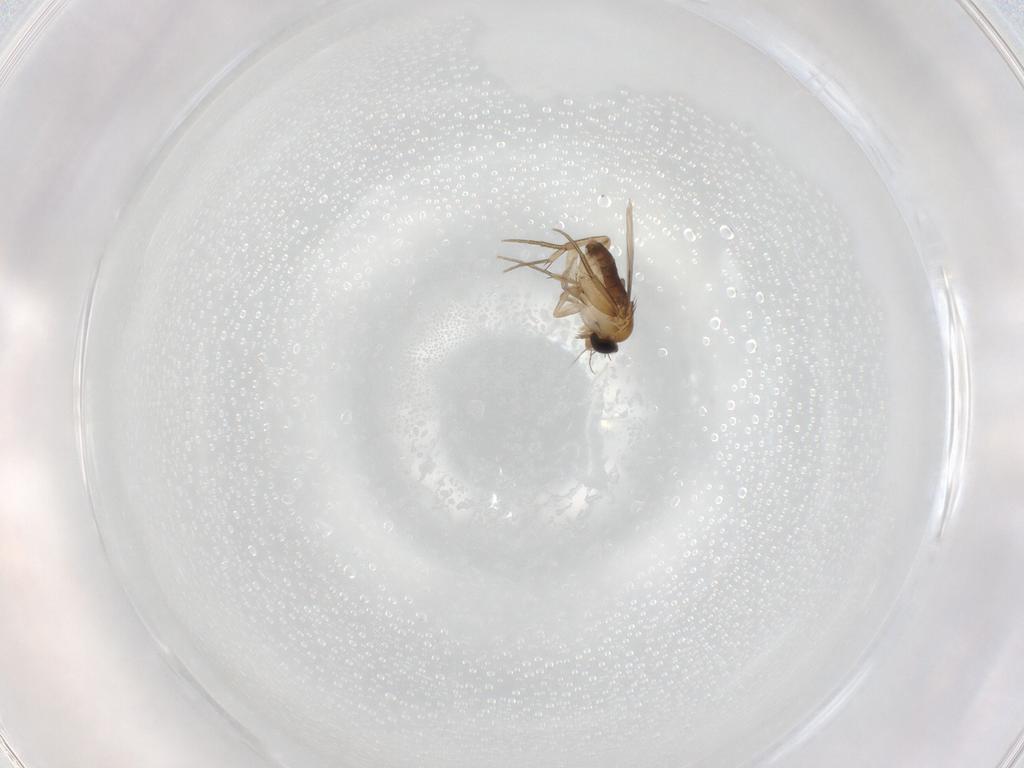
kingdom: Animalia
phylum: Arthropoda
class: Insecta
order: Diptera
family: Phoridae
